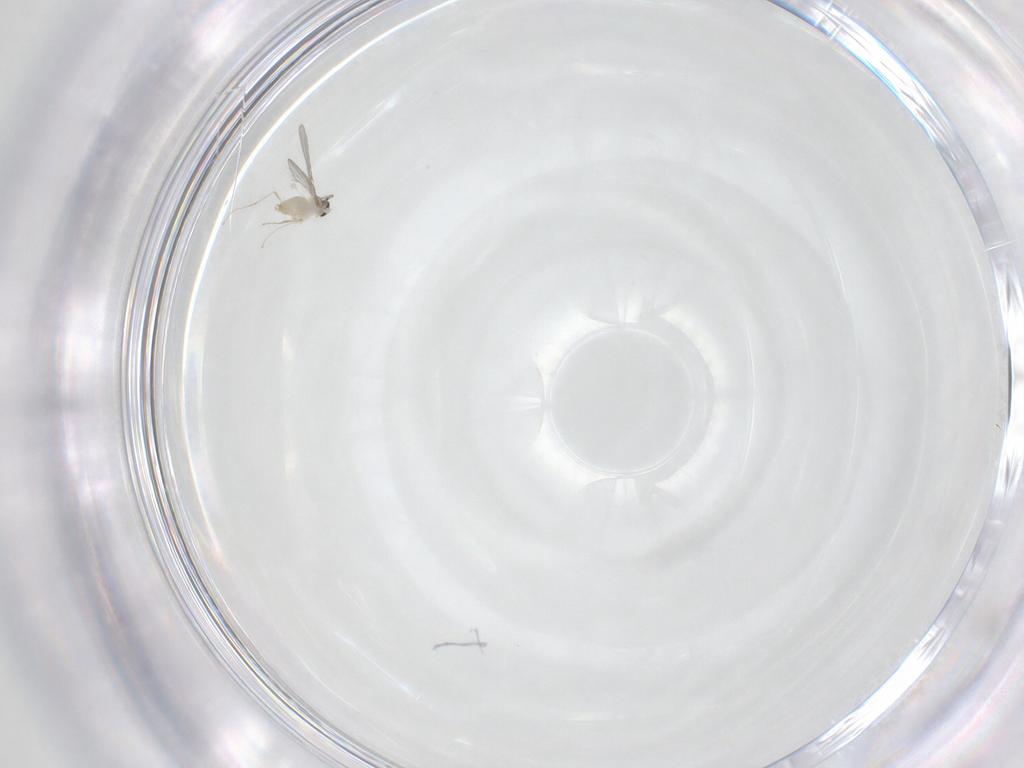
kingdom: Animalia
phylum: Arthropoda
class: Insecta
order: Diptera
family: Cecidomyiidae
